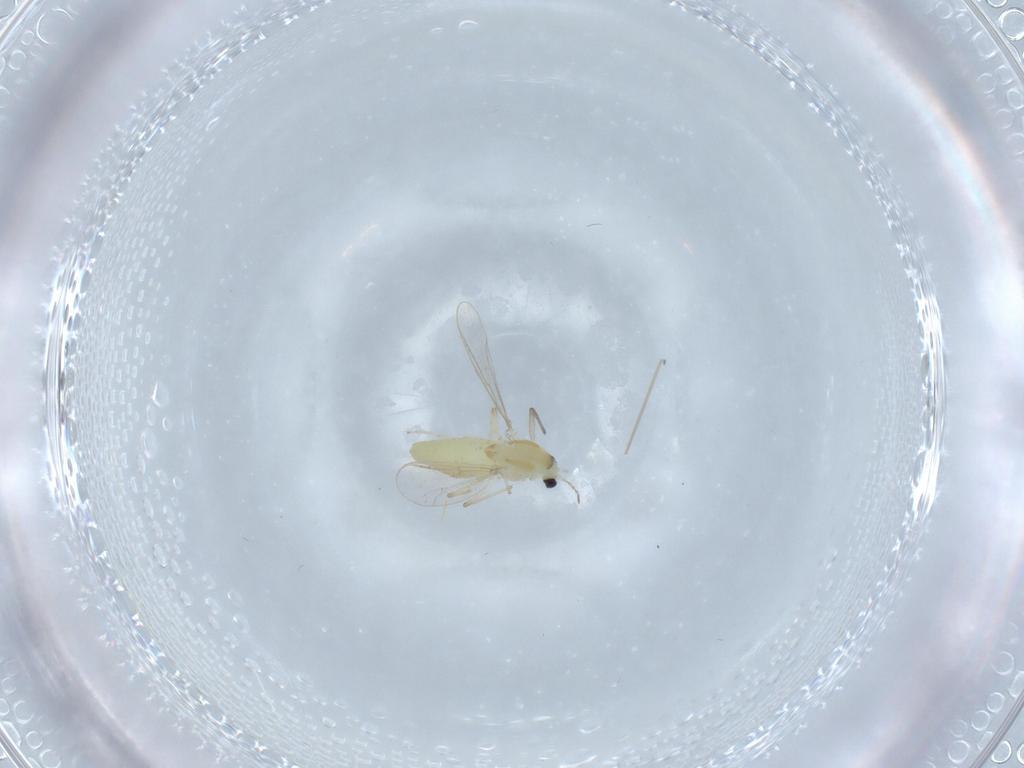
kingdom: Animalia
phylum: Arthropoda
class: Insecta
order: Diptera
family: Chironomidae
